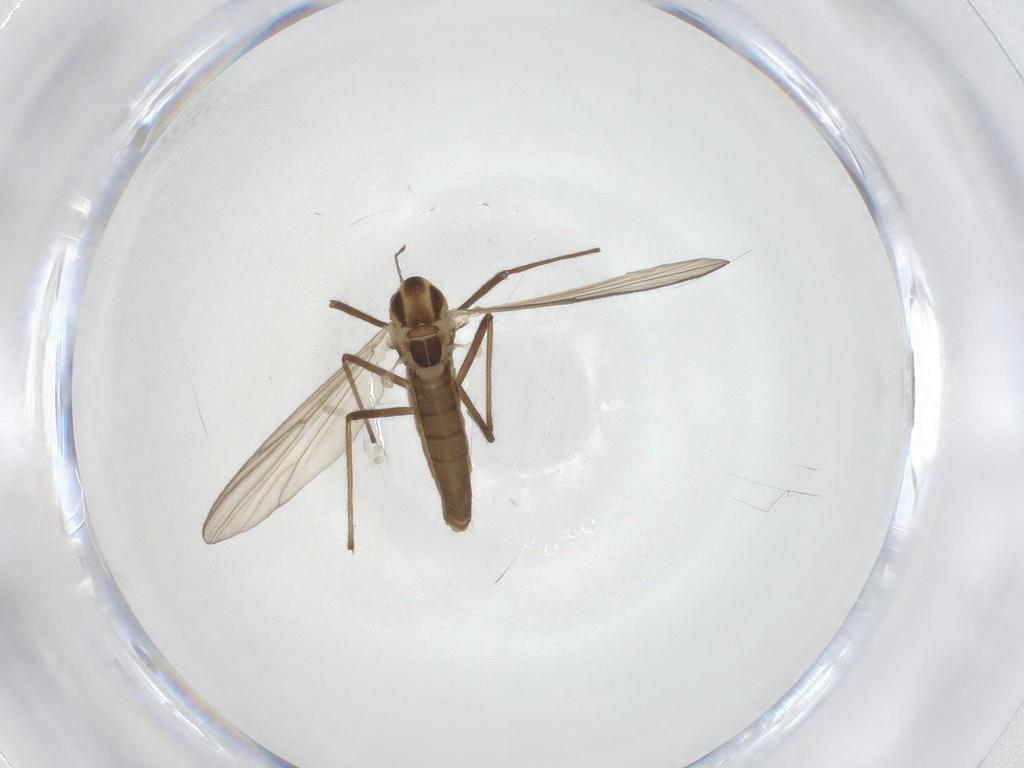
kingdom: Animalia
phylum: Arthropoda
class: Insecta
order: Diptera
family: Chironomidae
